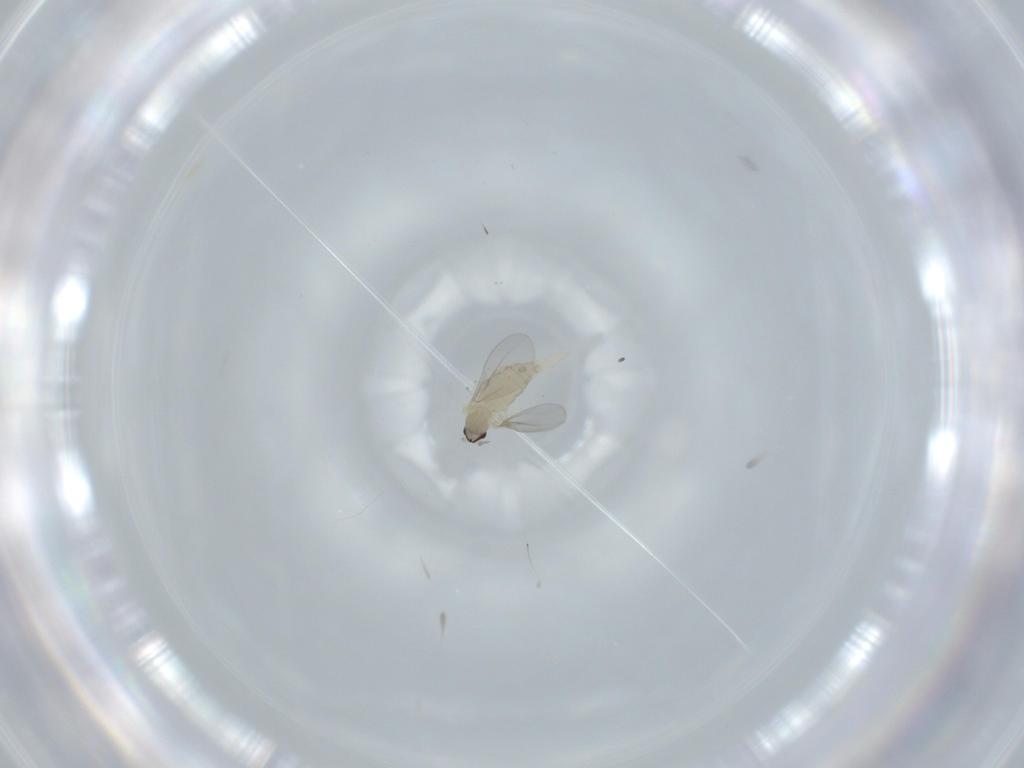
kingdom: Animalia
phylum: Arthropoda
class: Insecta
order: Diptera
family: Cecidomyiidae
